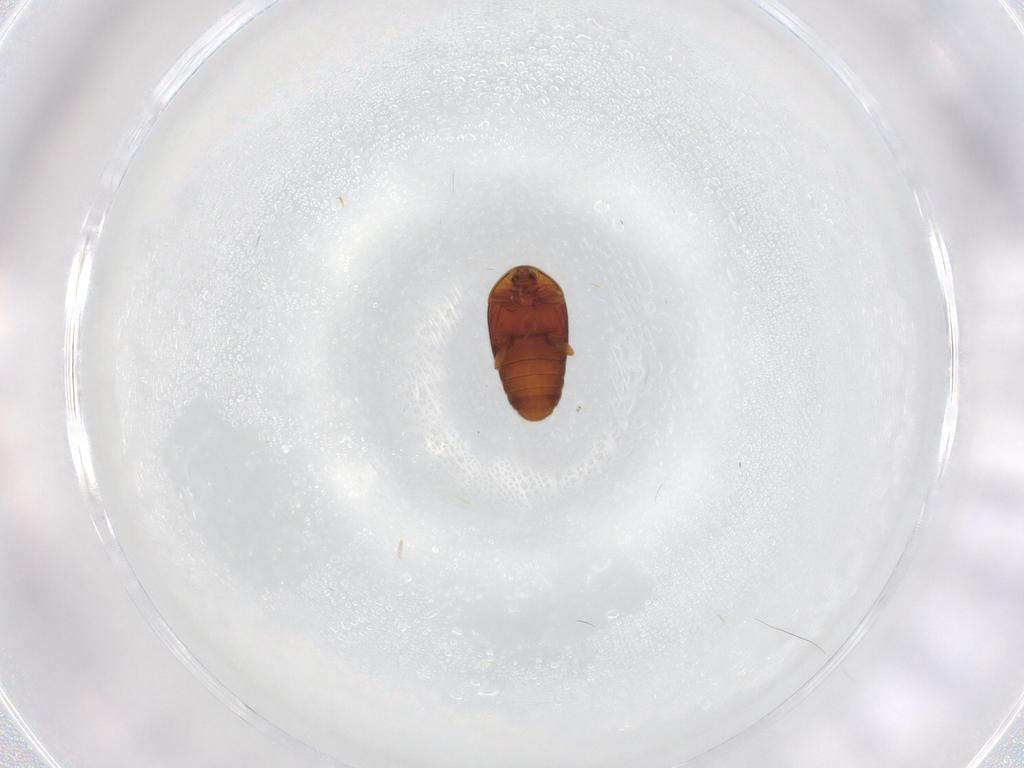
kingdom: Animalia
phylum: Arthropoda
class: Insecta
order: Coleoptera
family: Corylophidae
